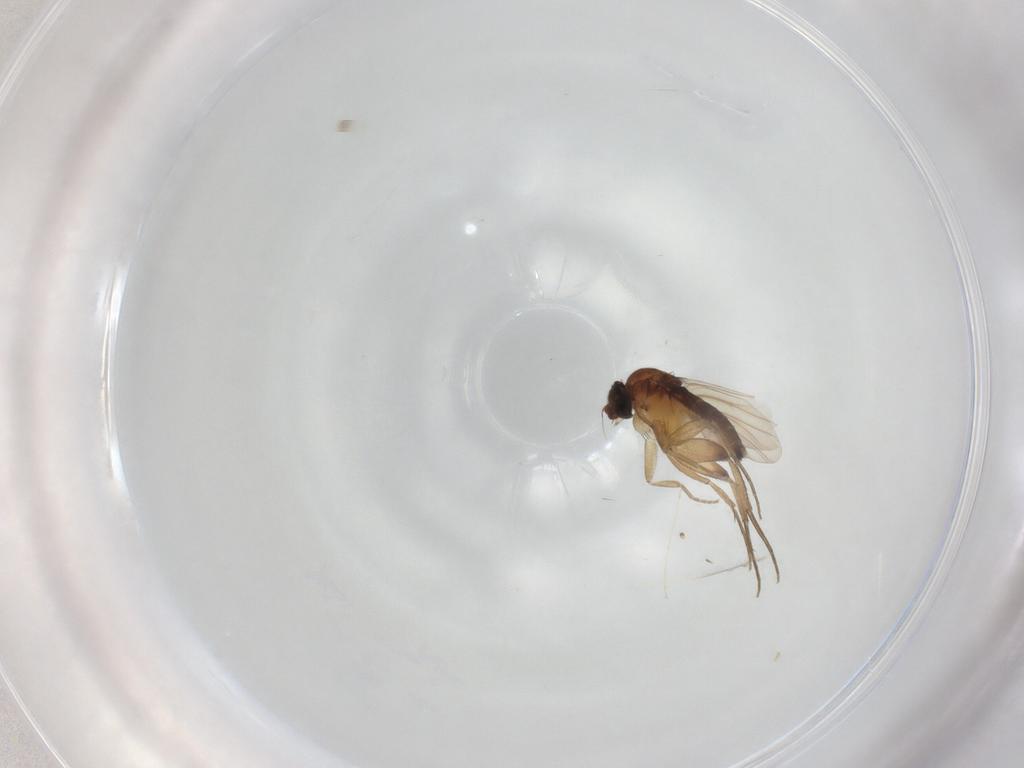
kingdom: Animalia
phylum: Arthropoda
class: Insecta
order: Diptera
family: Phoridae
